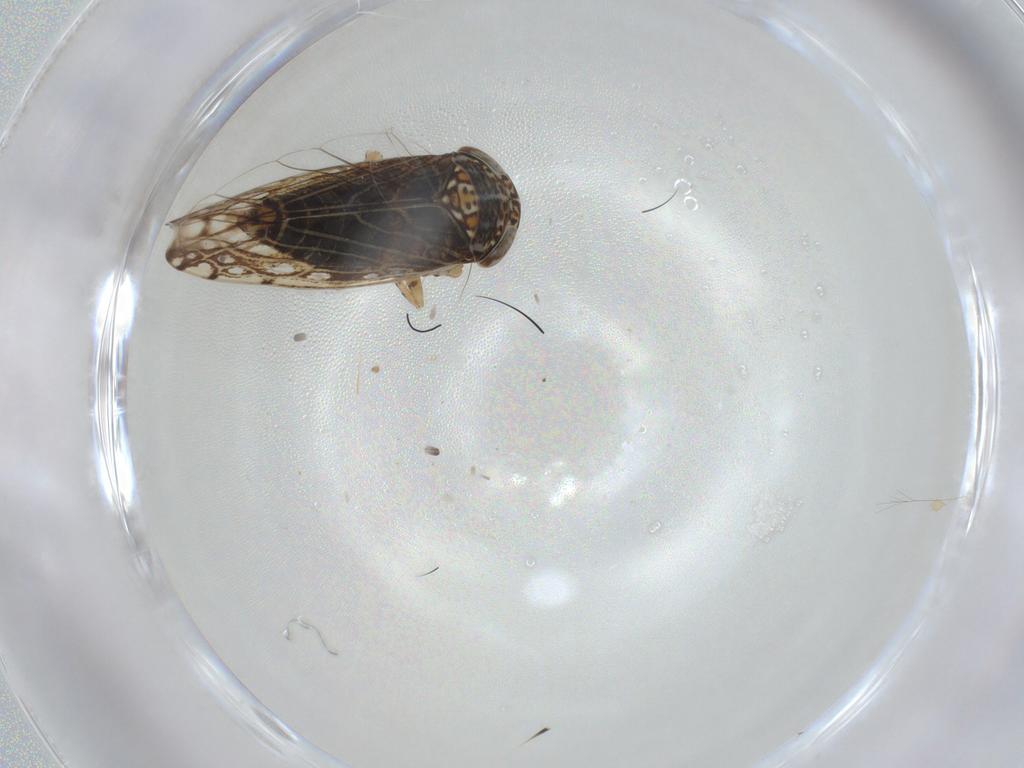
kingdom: Animalia
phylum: Arthropoda
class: Insecta
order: Hemiptera
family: Cicadellidae
